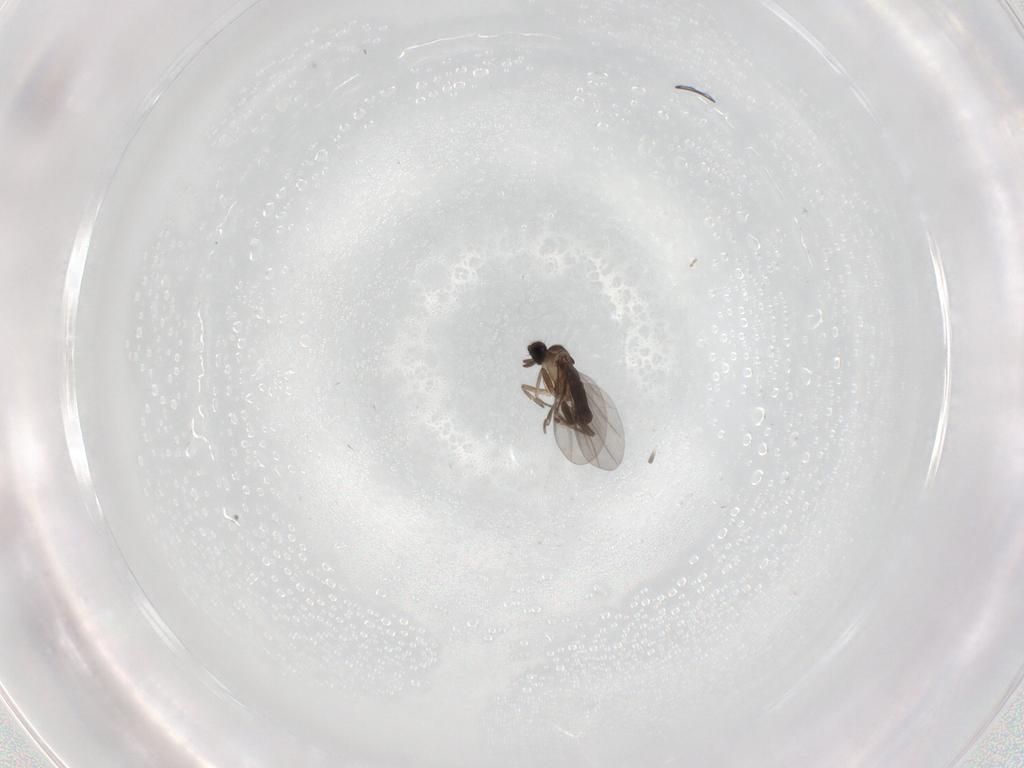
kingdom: Animalia
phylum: Arthropoda
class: Insecta
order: Diptera
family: Cecidomyiidae
